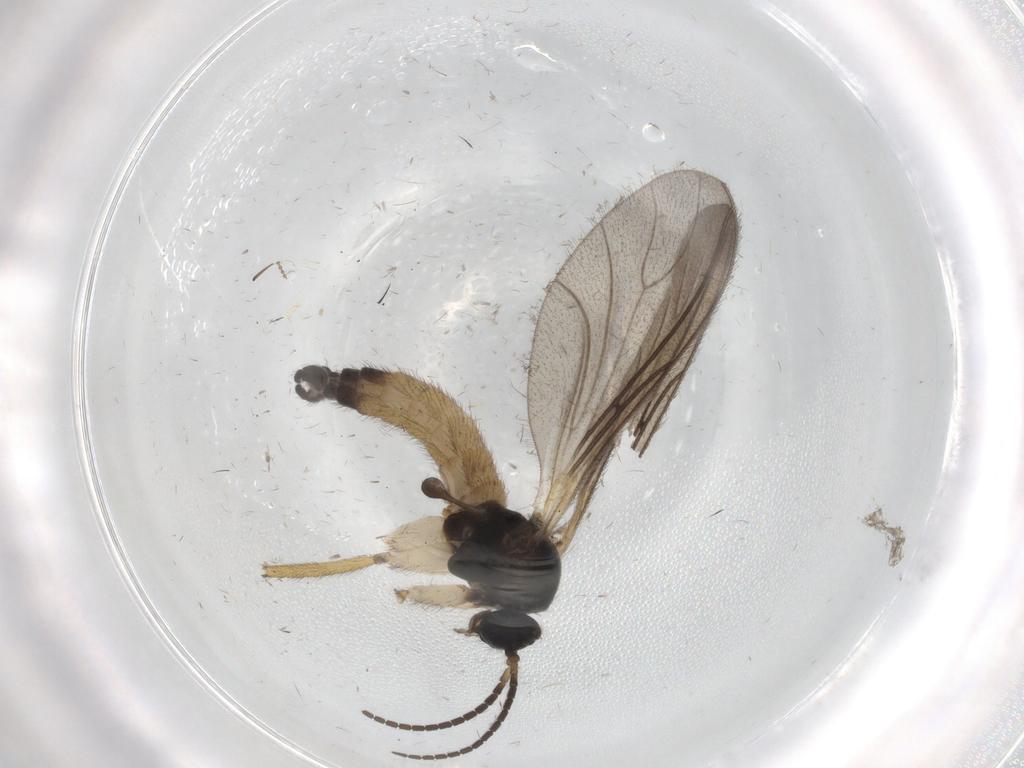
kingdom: Animalia
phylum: Arthropoda
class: Insecta
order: Diptera
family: Sciaridae
